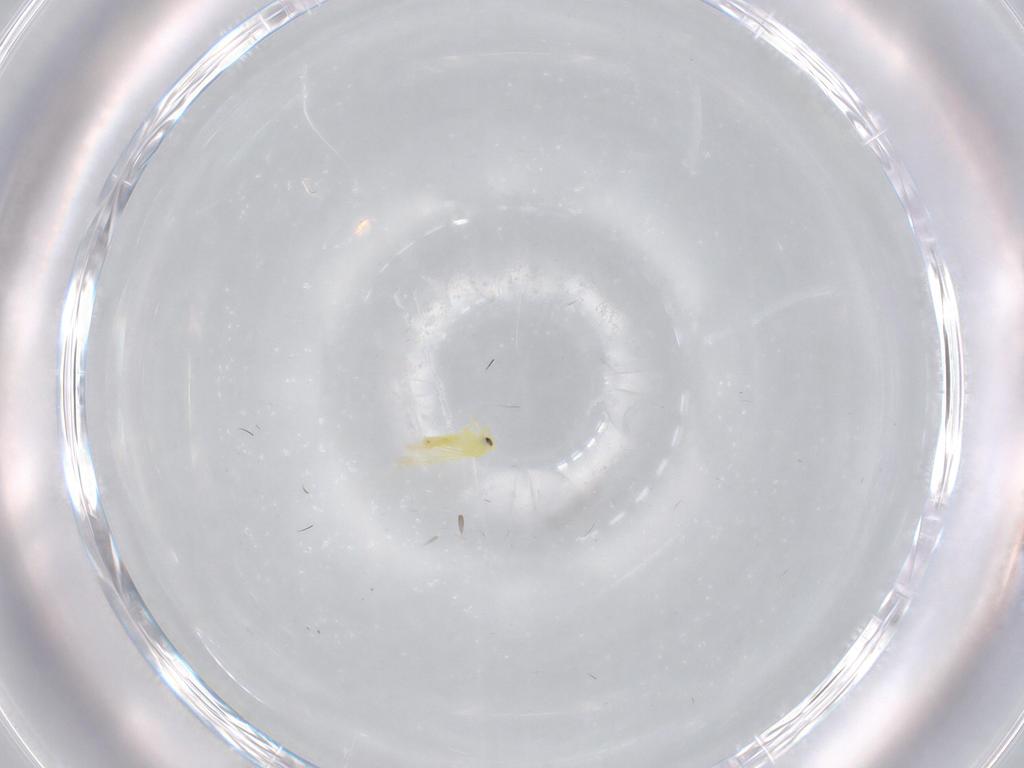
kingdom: Animalia
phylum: Arthropoda
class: Insecta
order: Hemiptera
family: Aleyrodidae
